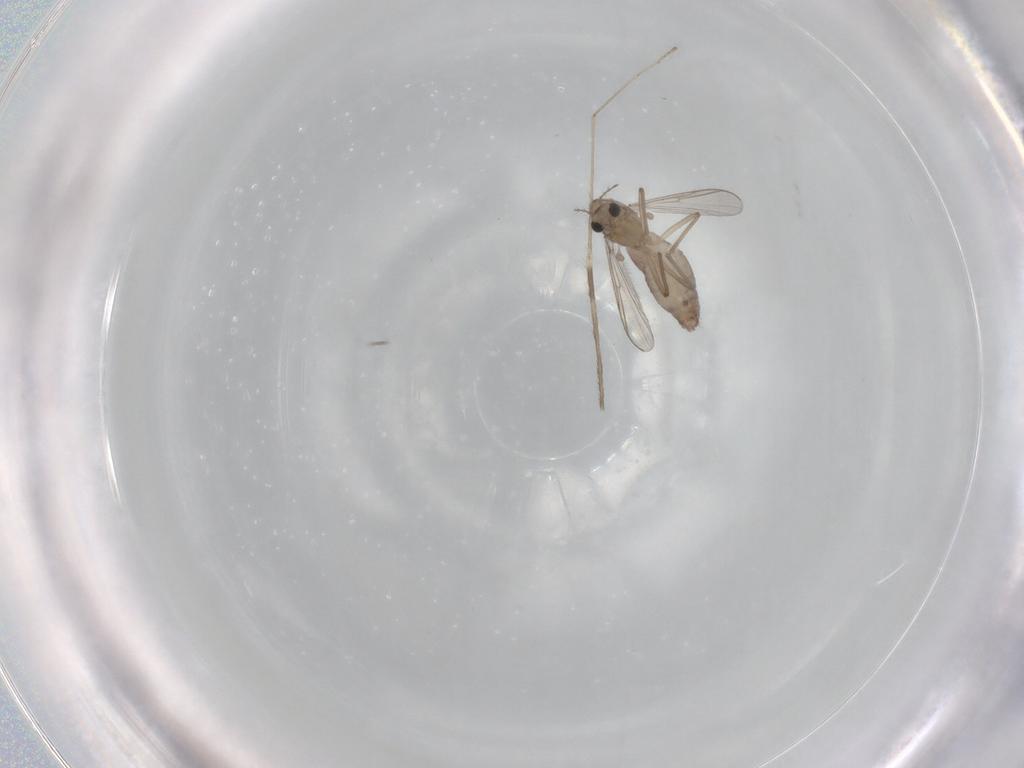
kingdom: Animalia
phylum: Arthropoda
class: Insecta
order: Diptera
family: Chironomidae
